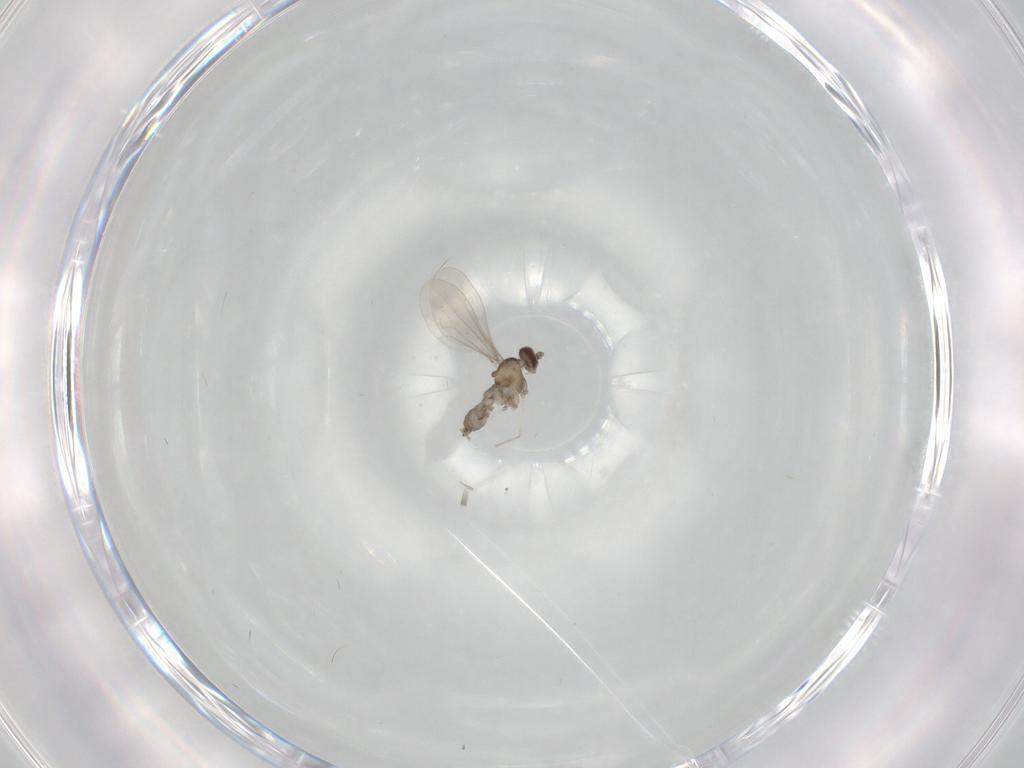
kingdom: Animalia
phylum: Arthropoda
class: Insecta
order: Diptera
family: Cecidomyiidae
